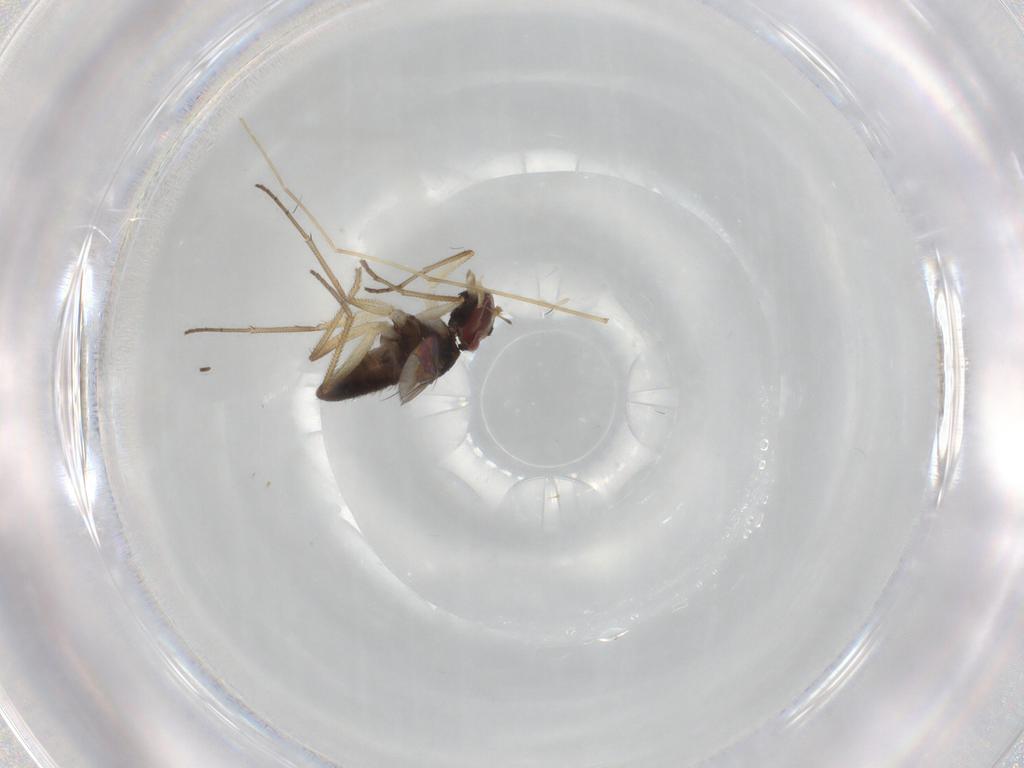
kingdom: Animalia
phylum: Arthropoda
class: Insecta
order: Diptera
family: Dolichopodidae
